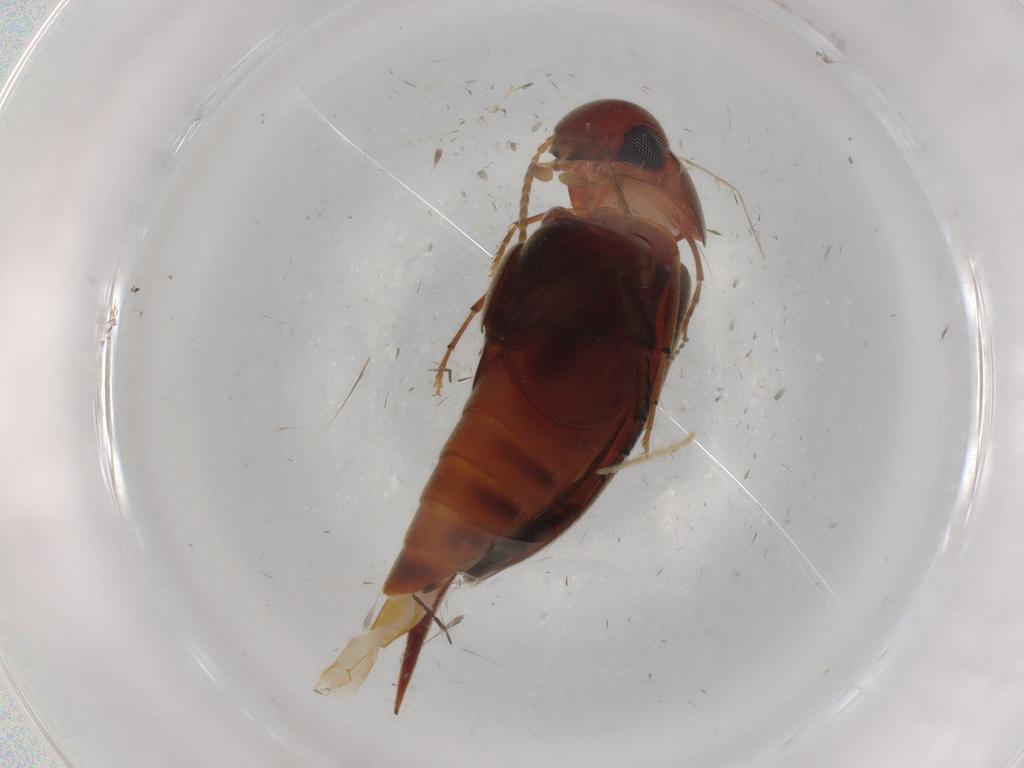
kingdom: Animalia
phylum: Arthropoda
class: Insecta
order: Coleoptera
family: Mordellidae
